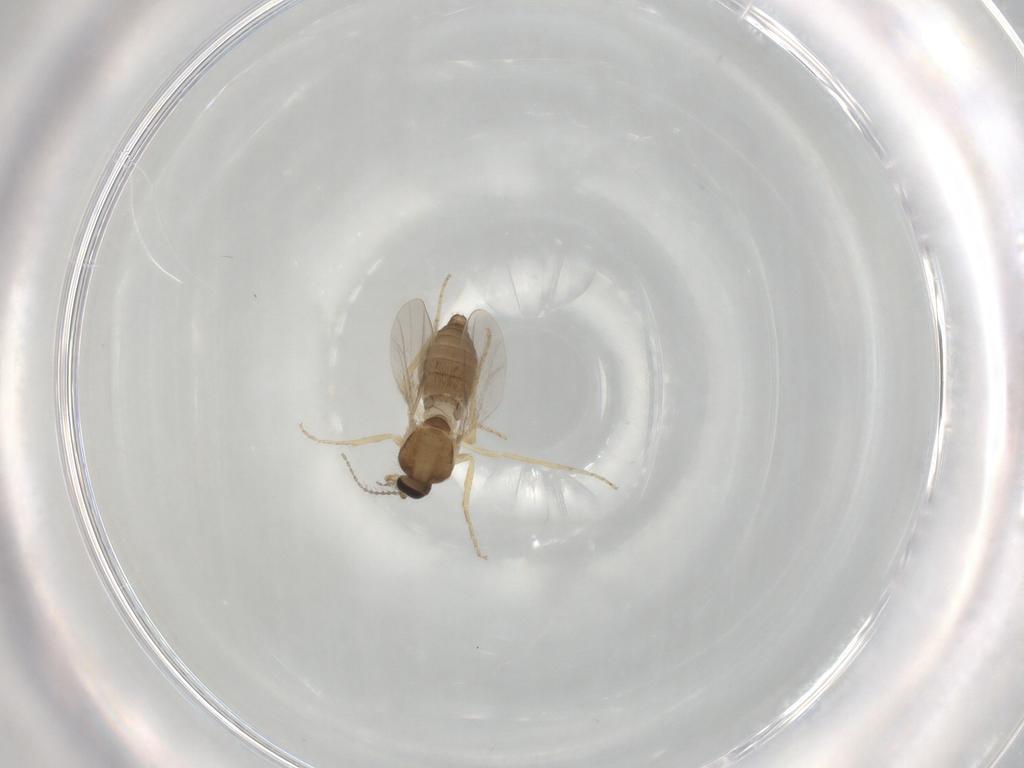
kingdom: Animalia
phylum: Arthropoda
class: Insecta
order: Diptera
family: Ceratopogonidae
